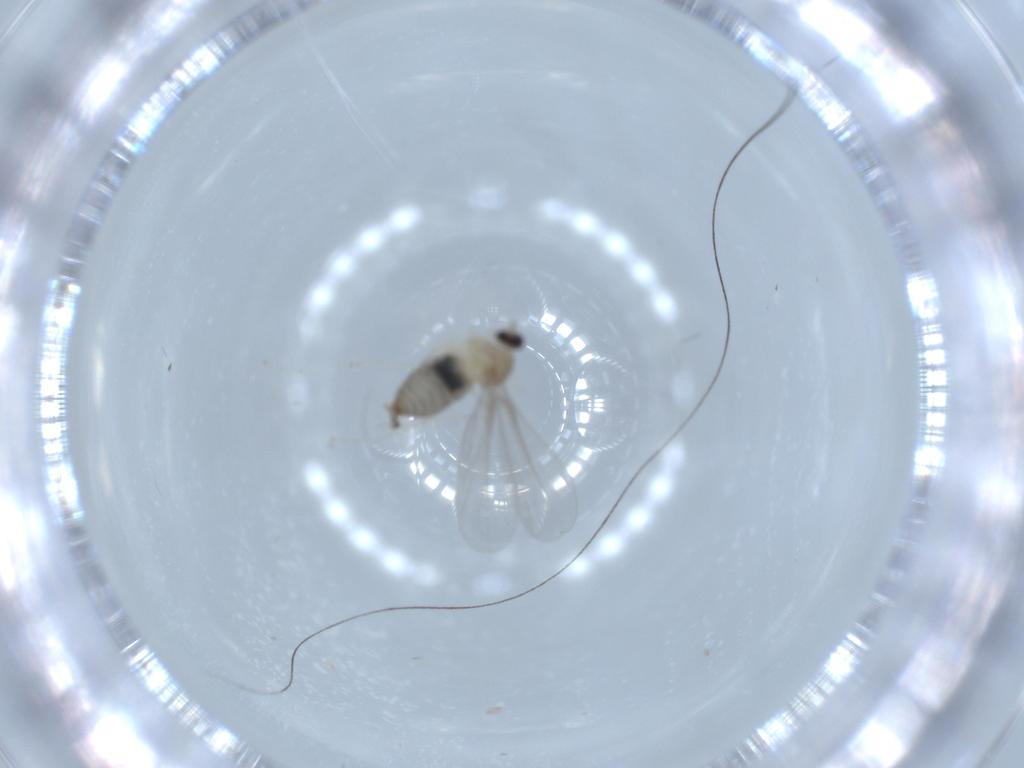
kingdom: Animalia
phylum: Arthropoda
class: Insecta
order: Diptera
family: Cecidomyiidae
